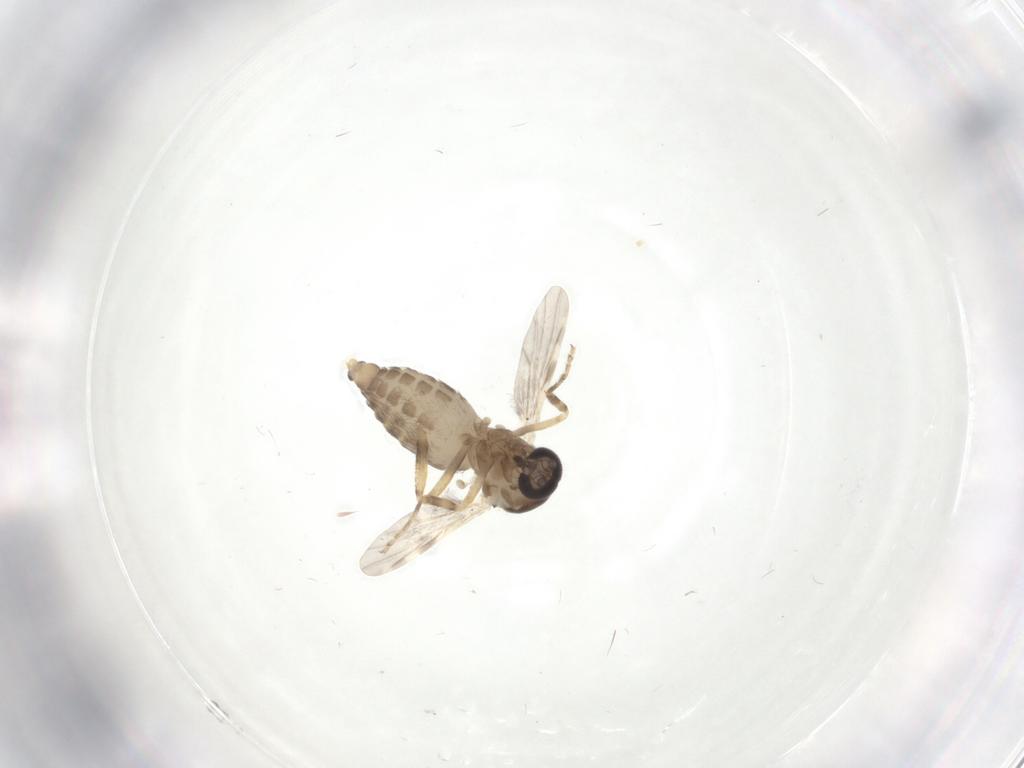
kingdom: Animalia
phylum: Arthropoda
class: Insecta
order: Diptera
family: Ceratopogonidae
